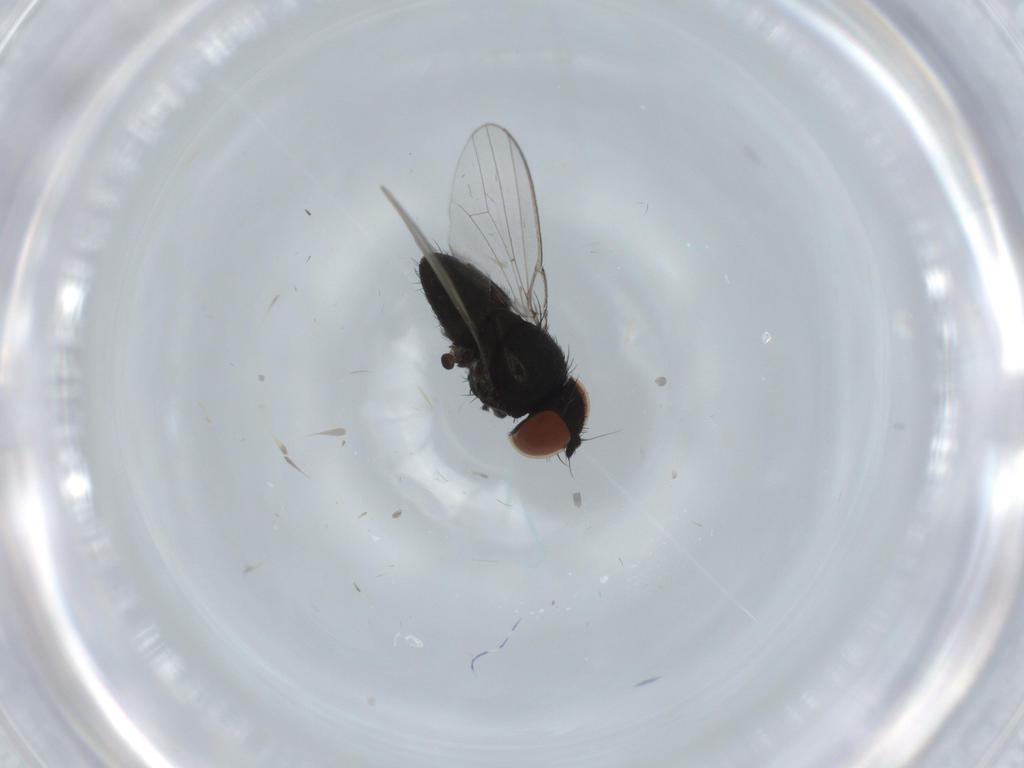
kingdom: Animalia
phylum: Arthropoda
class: Insecta
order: Diptera
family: Milichiidae
